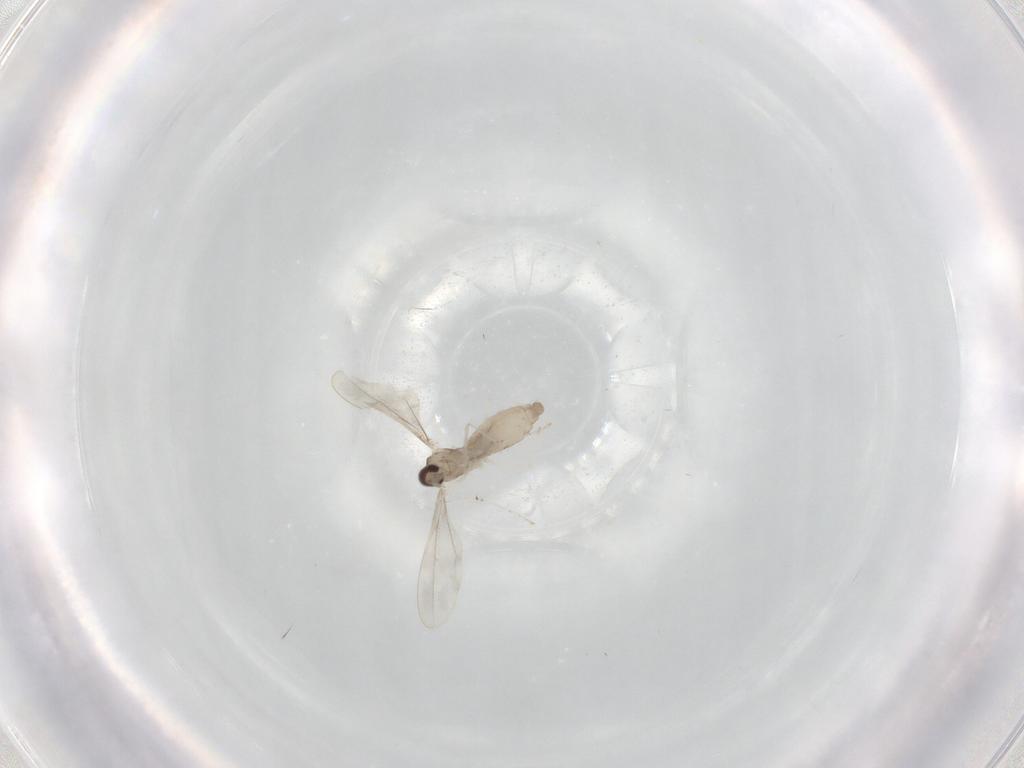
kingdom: Animalia
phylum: Arthropoda
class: Insecta
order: Diptera
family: Cecidomyiidae
